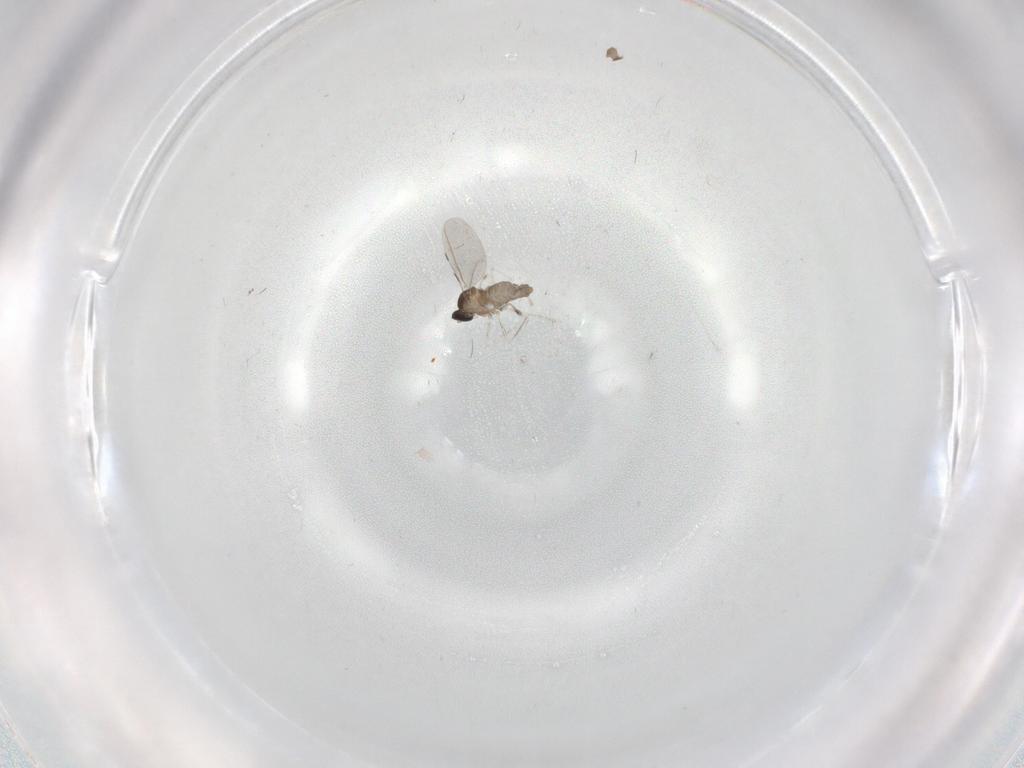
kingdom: Animalia
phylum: Arthropoda
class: Insecta
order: Diptera
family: Cecidomyiidae
